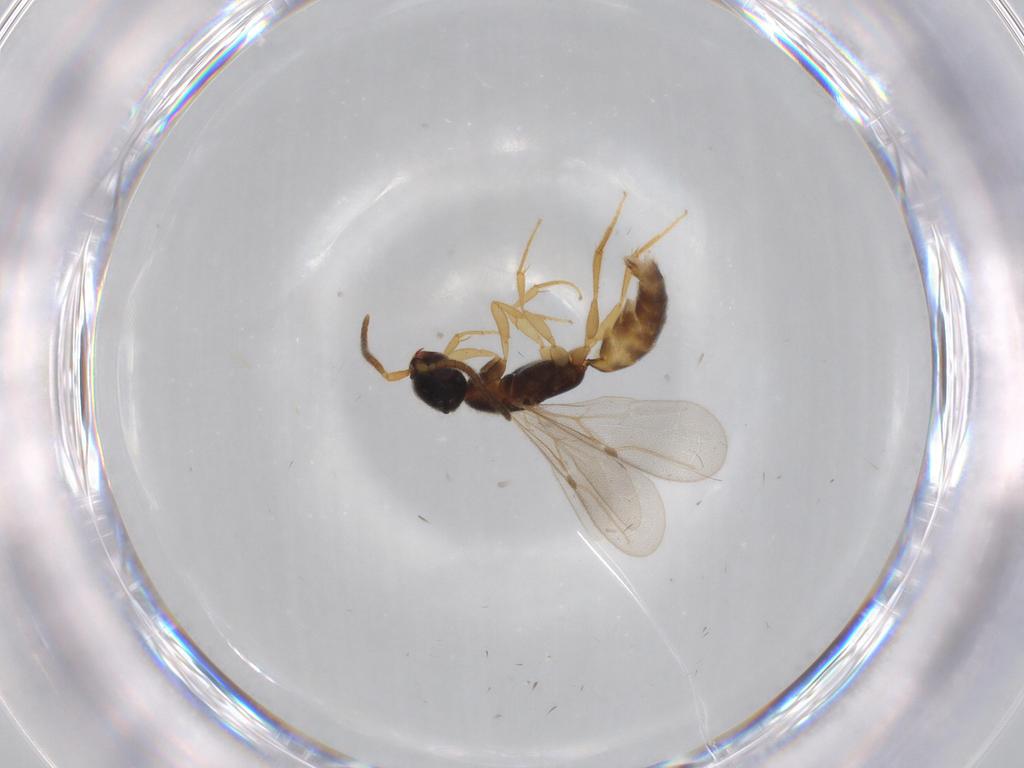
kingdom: Animalia
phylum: Arthropoda
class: Insecta
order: Hymenoptera
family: Bethylidae
